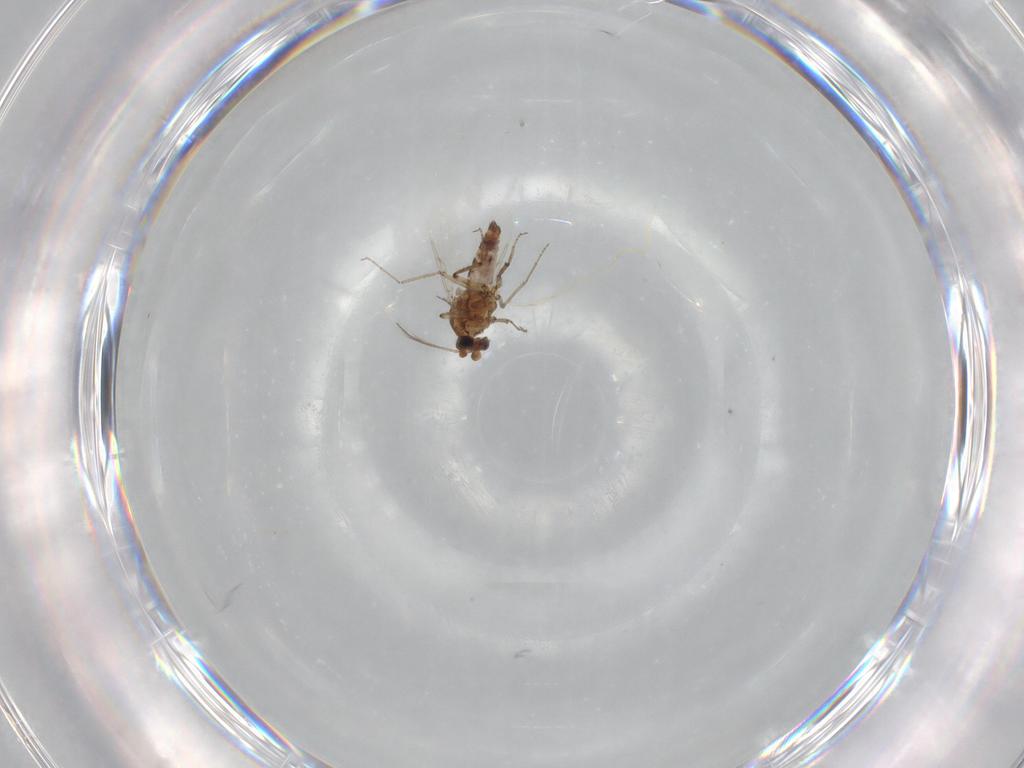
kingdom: Animalia
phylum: Arthropoda
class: Insecta
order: Diptera
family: Ceratopogonidae
